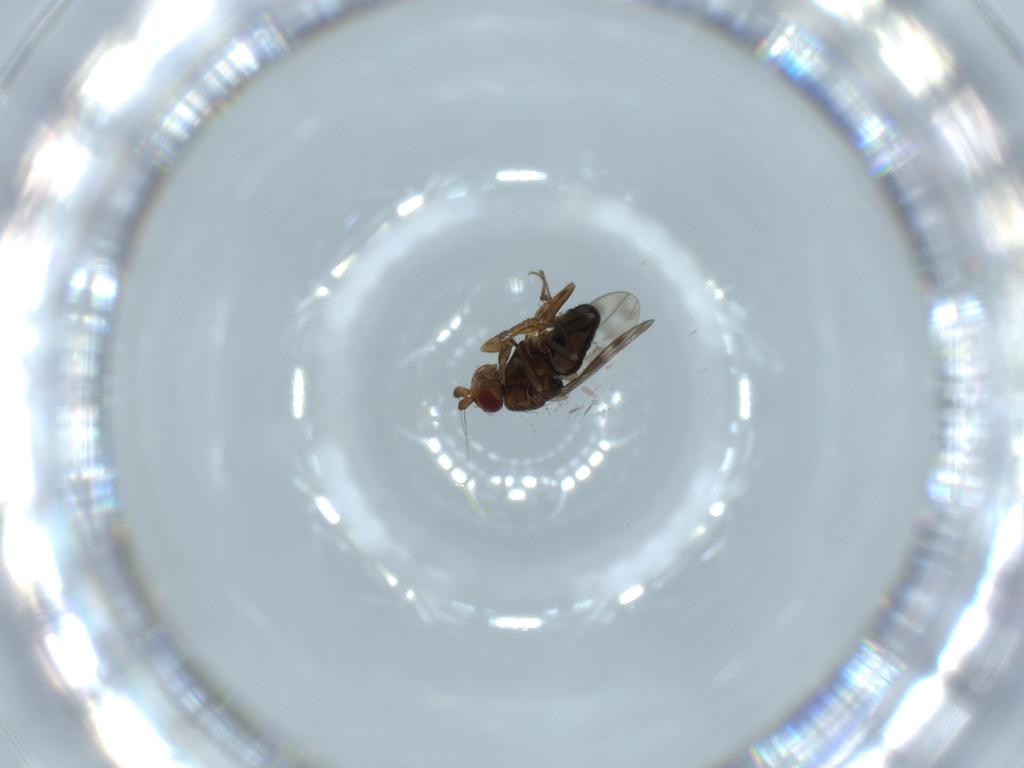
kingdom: Animalia
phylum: Arthropoda
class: Insecta
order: Diptera
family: Sphaeroceridae
